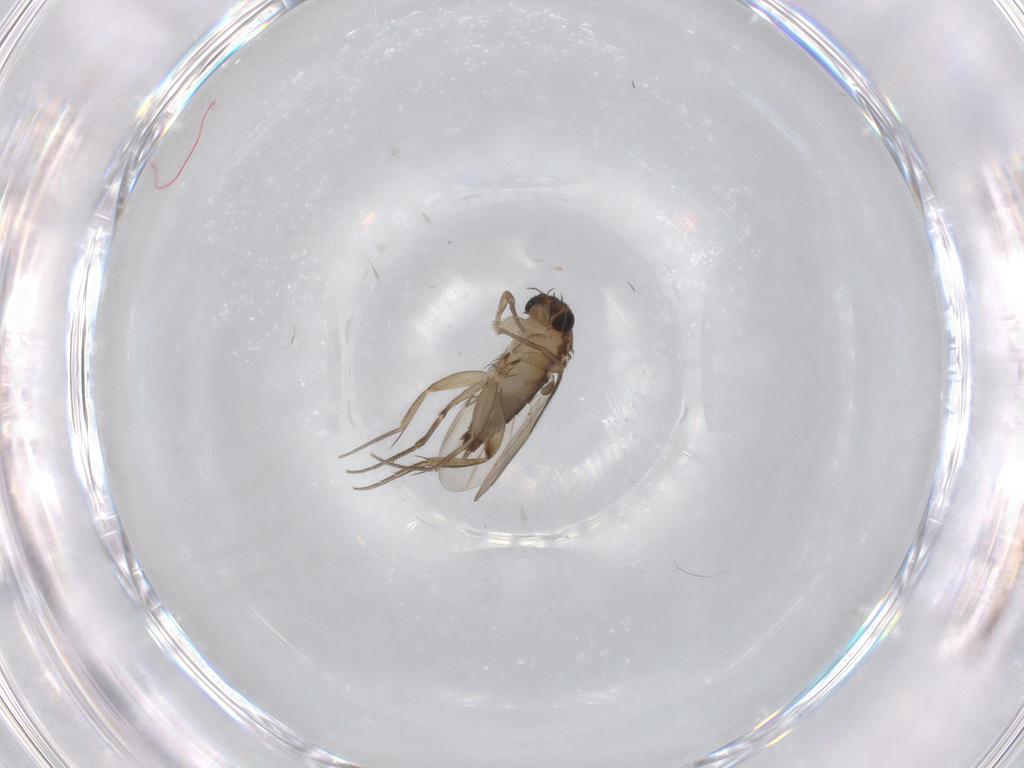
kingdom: Animalia
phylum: Arthropoda
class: Insecta
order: Diptera
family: Phoridae
